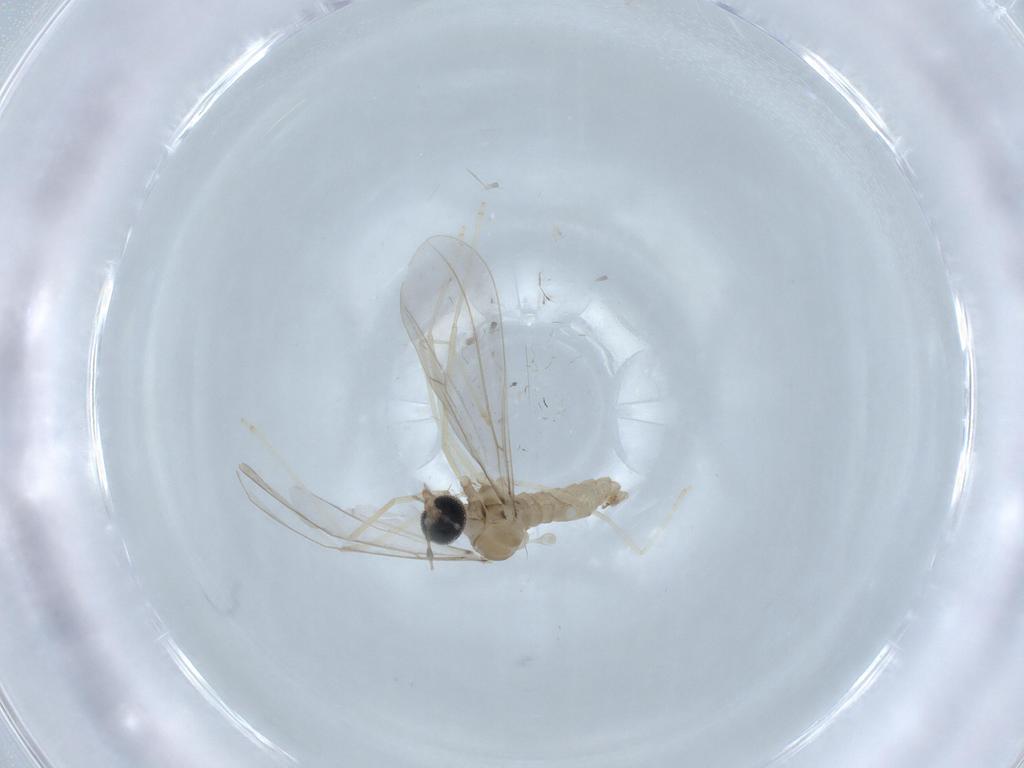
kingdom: Animalia
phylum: Arthropoda
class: Insecta
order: Diptera
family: Cecidomyiidae
